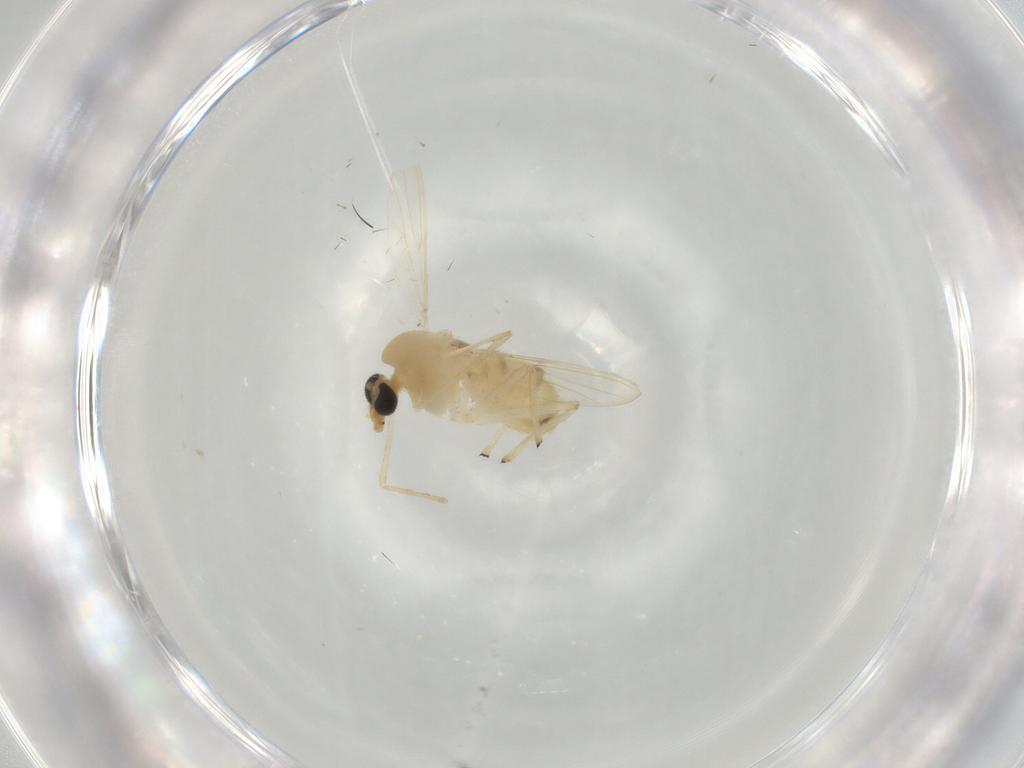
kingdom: Animalia
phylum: Arthropoda
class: Insecta
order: Diptera
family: Chironomidae
